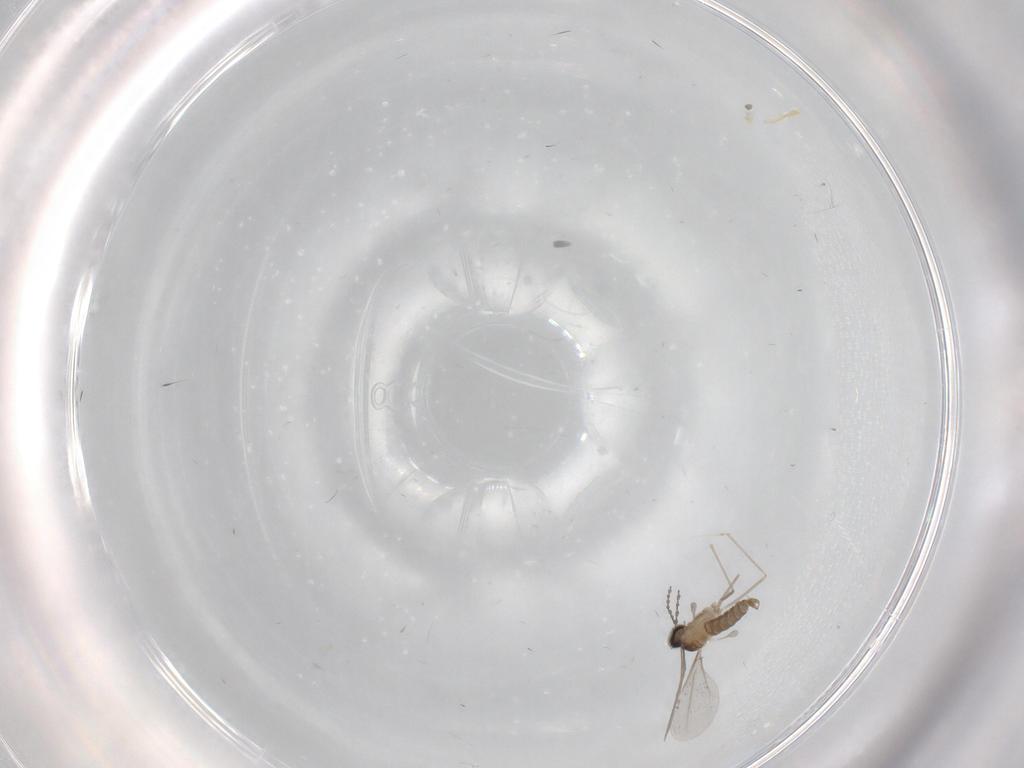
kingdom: Animalia
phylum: Arthropoda
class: Insecta
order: Diptera
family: Cecidomyiidae
